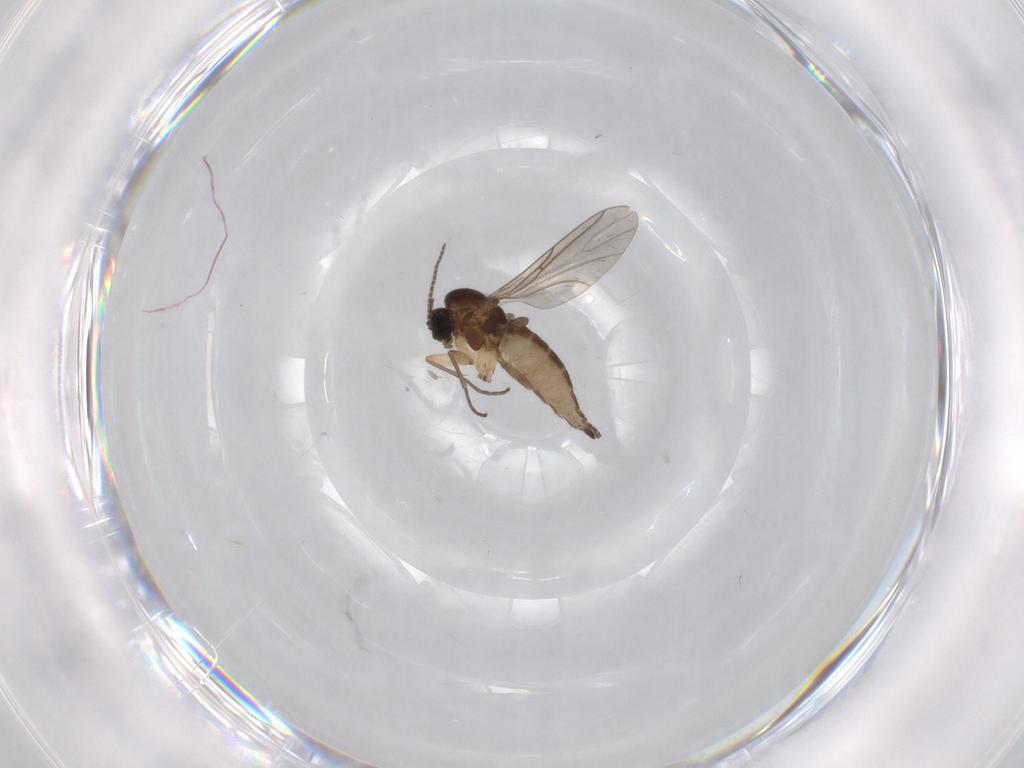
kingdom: Animalia
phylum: Arthropoda
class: Insecta
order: Diptera
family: Sciaridae
